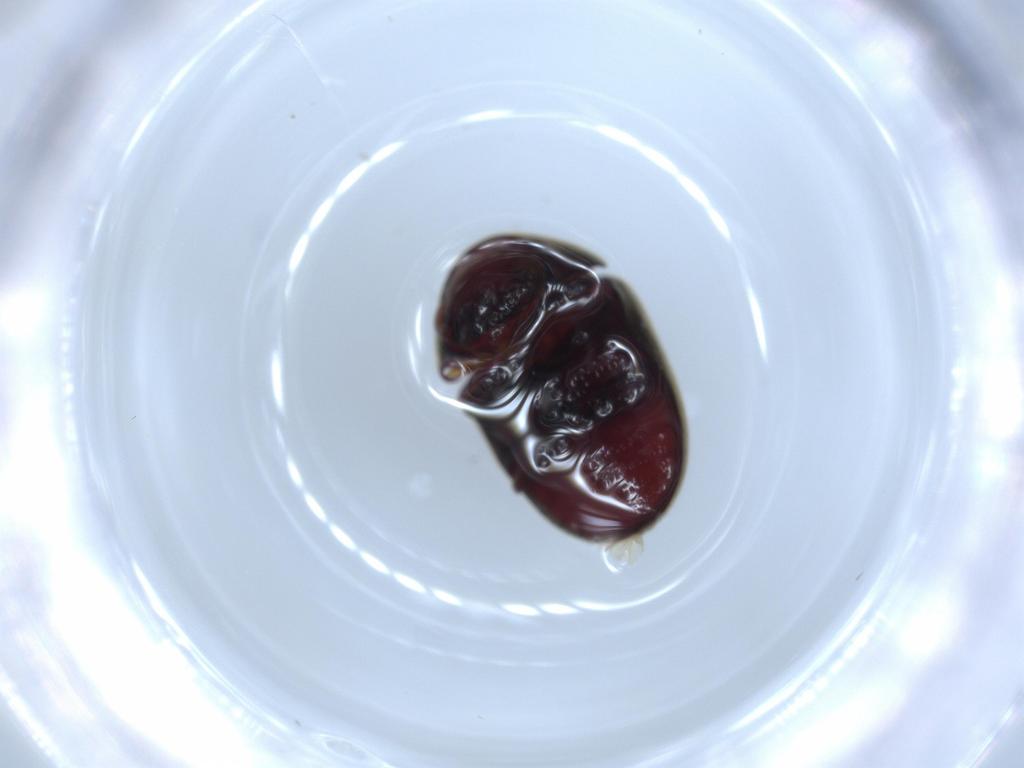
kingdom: Animalia
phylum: Arthropoda
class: Insecta
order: Coleoptera
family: Ptinidae
